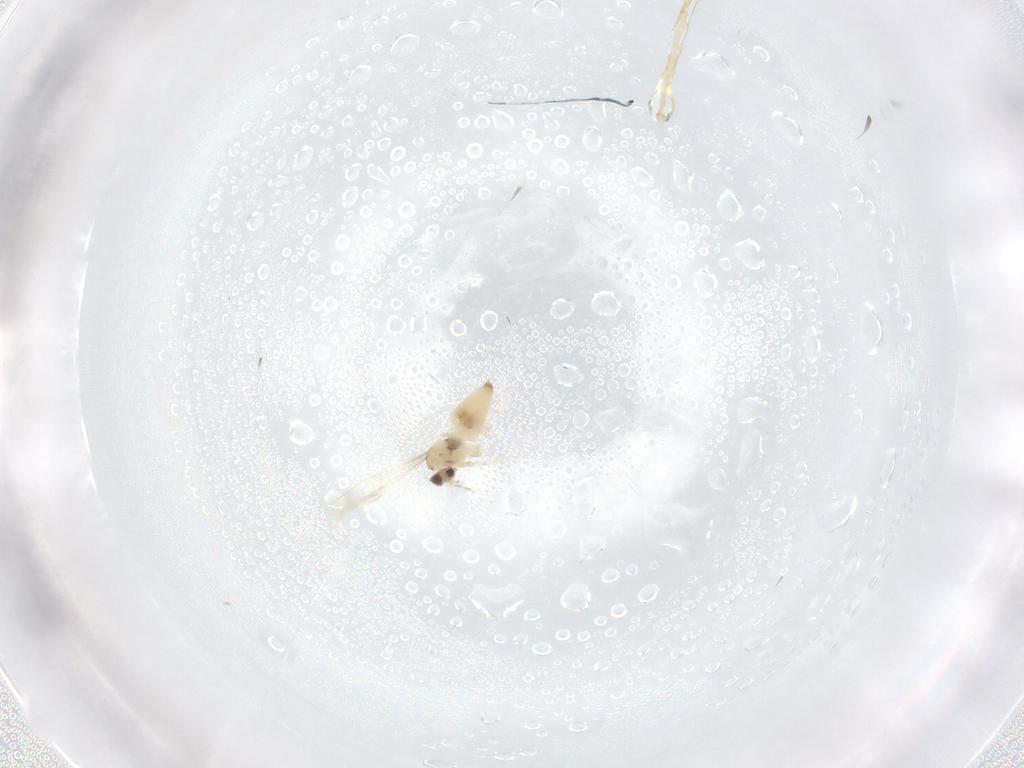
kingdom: Animalia
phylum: Arthropoda
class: Insecta
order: Diptera
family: Cecidomyiidae
